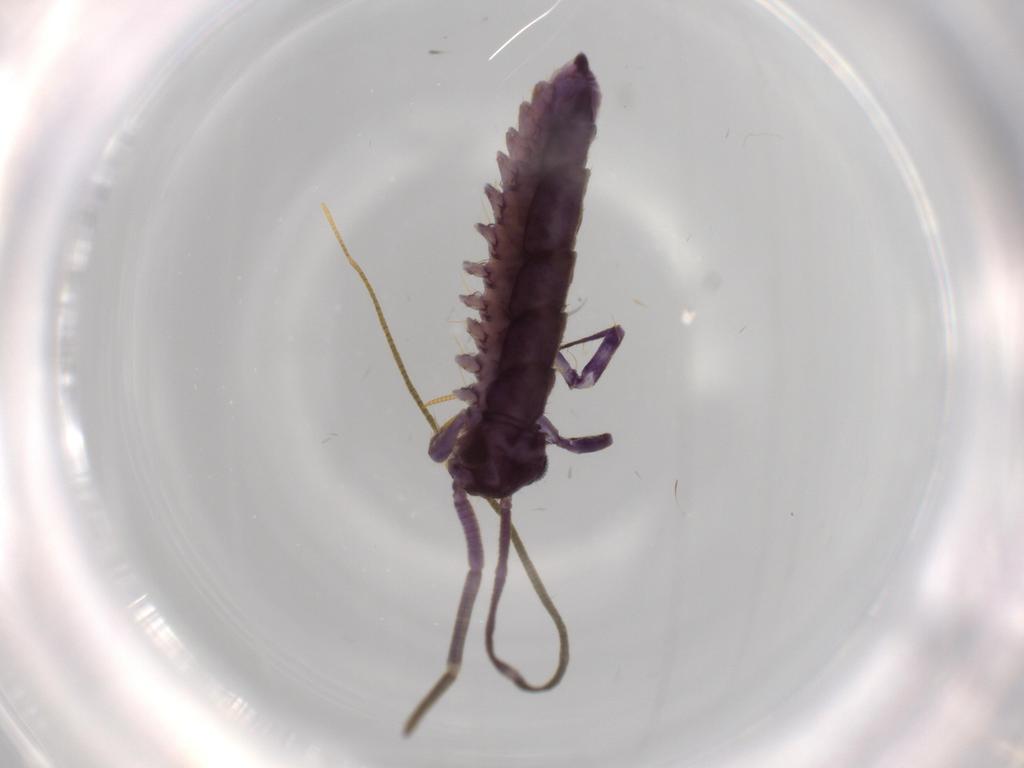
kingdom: Animalia
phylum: Arthropoda
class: Chilopoda
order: Scutigeromorpha
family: Scutigeridae
